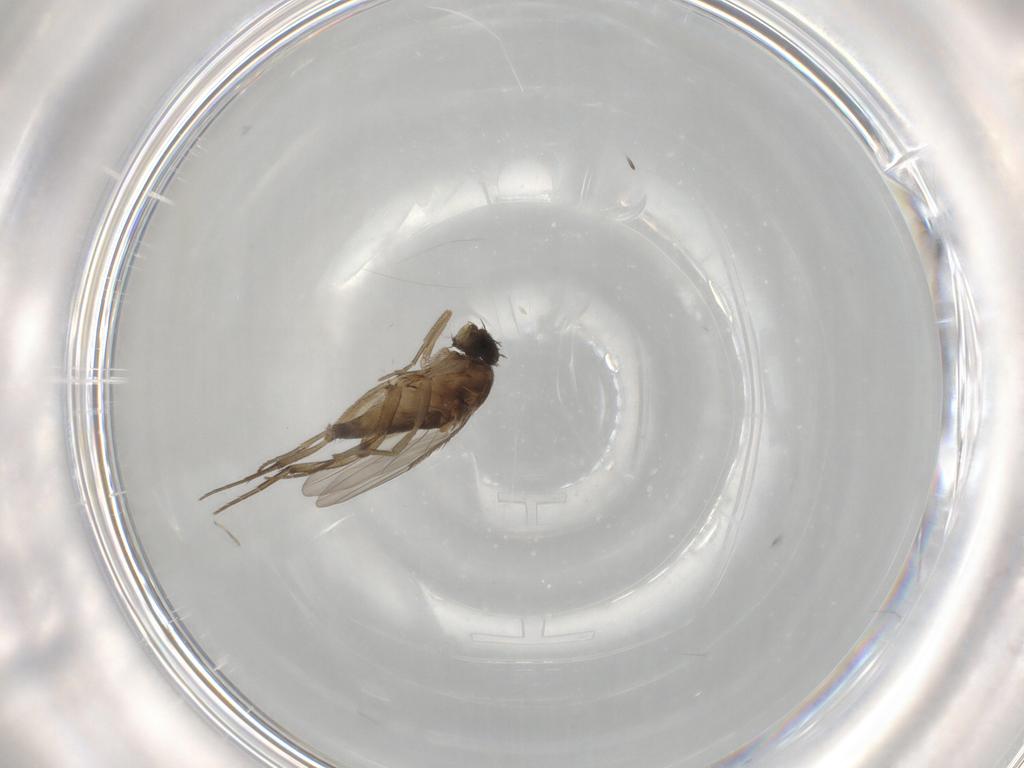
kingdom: Animalia
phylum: Arthropoda
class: Insecta
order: Diptera
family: Phoridae
